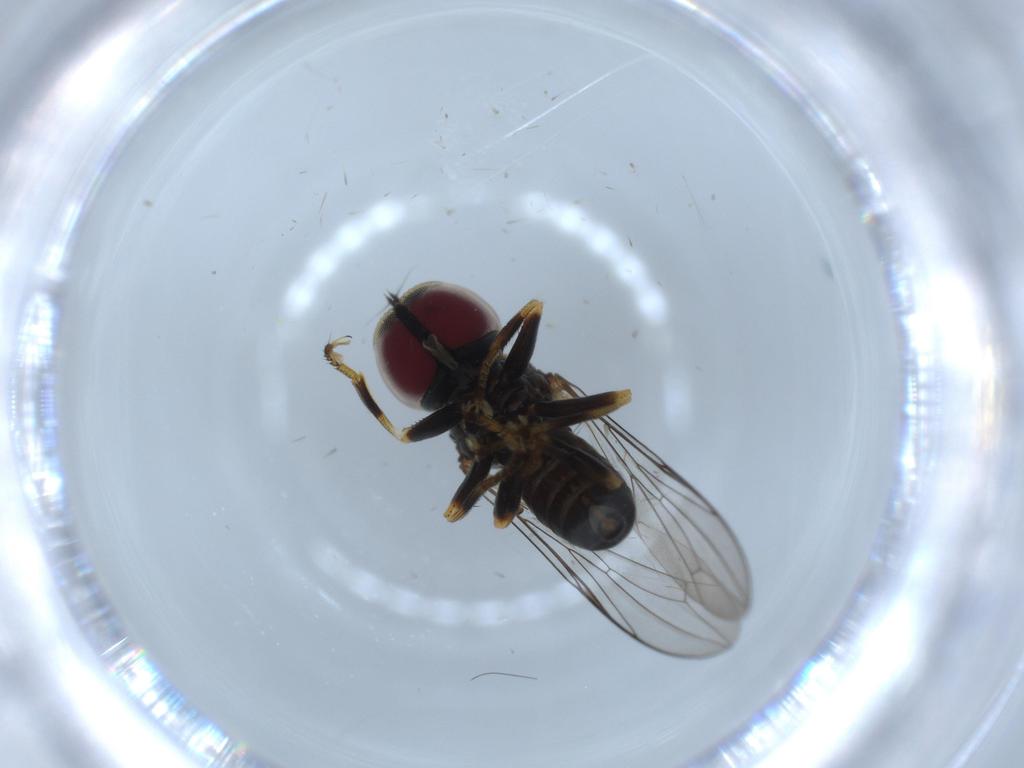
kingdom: Animalia
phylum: Arthropoda
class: Insecta
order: Diptera
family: Pipunculidae
